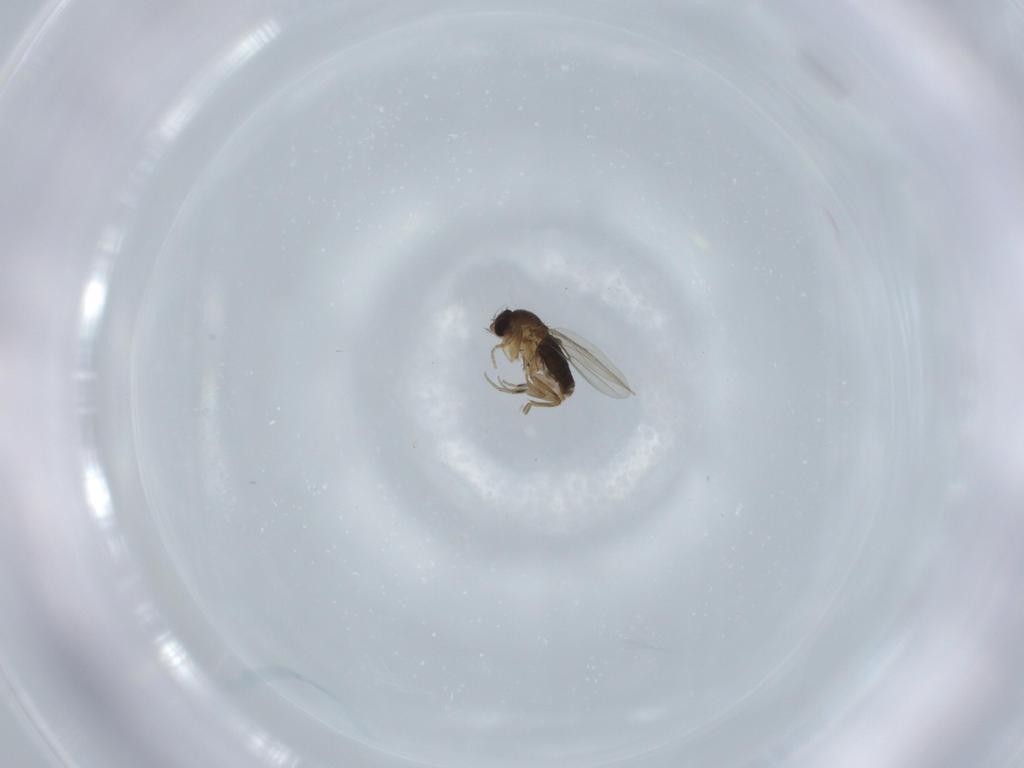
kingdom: Animalia
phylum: Arthropoda
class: Insecta
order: Diptera
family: Phoridae
